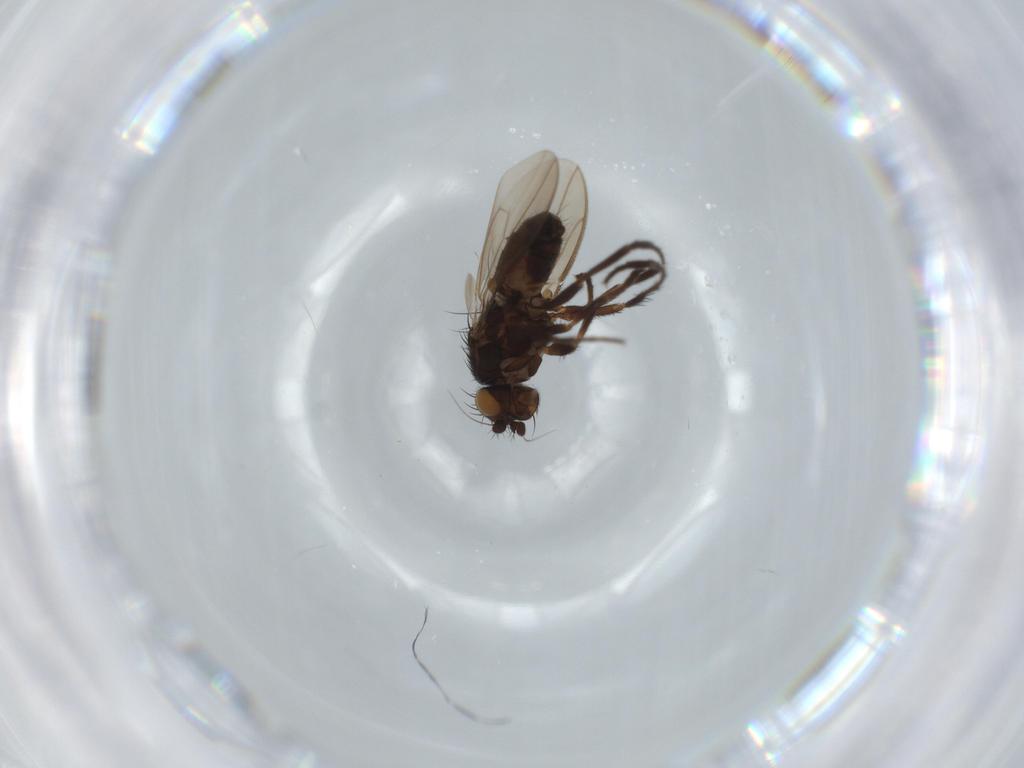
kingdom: Animalia
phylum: Arthropoda
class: Insecta
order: Diptera
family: Sphaeroceridae
